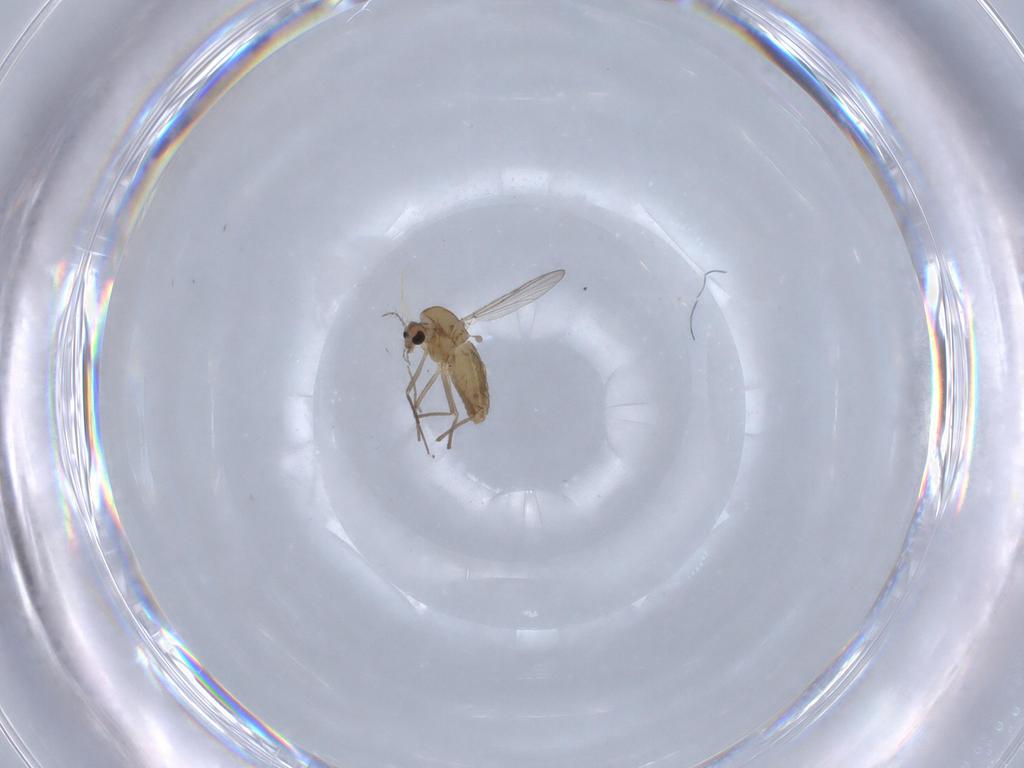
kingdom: Animalia
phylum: Arthropoda
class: Insecta
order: Diptera
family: Chironomidae
